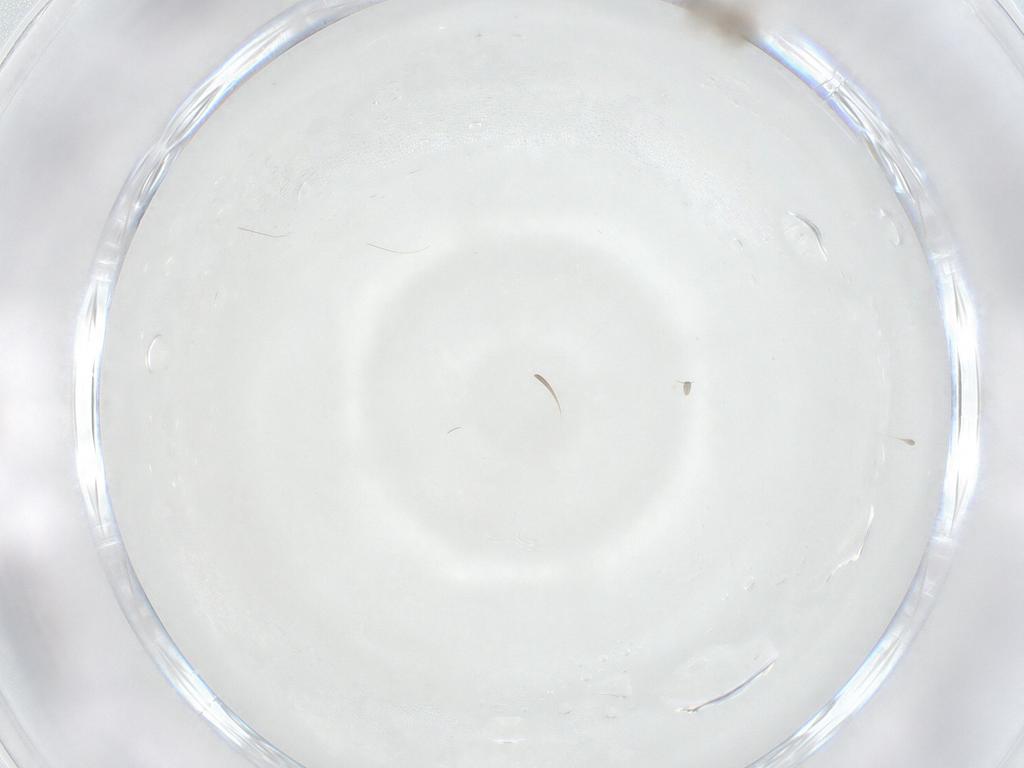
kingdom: Animalia
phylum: Arthropoda
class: Insecta
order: Diptera
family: Ceratopogonidae
